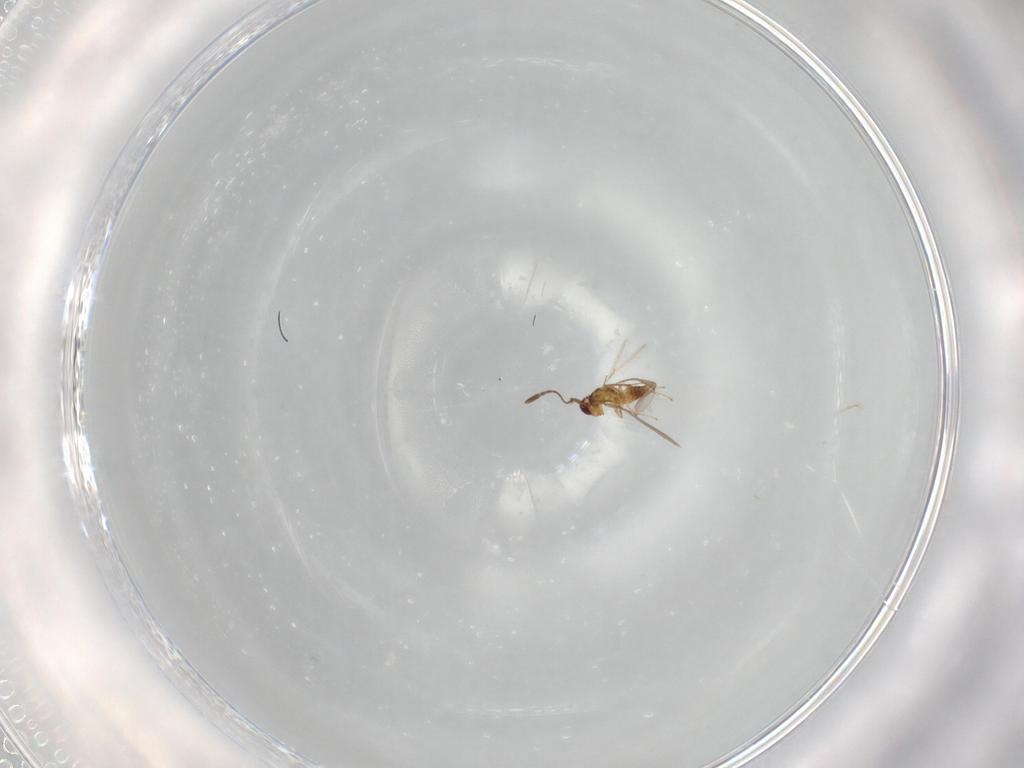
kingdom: Animalia
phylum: Arthropoda
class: Insecta
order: Hymenoptera
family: Mymaridae
